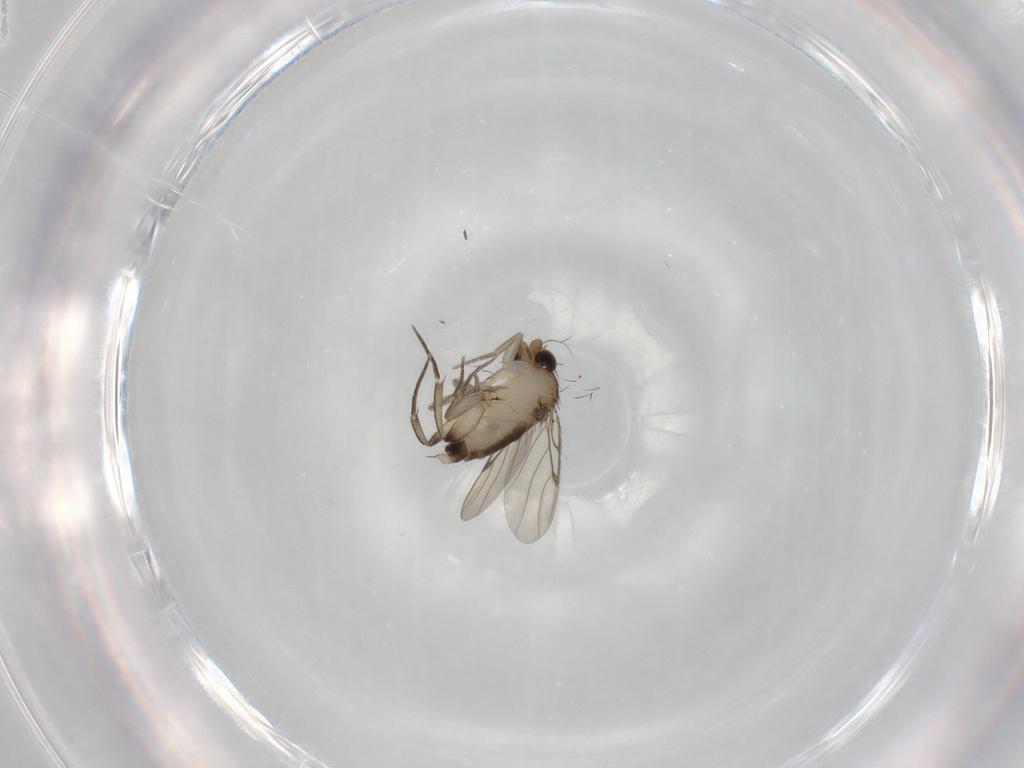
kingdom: Animalia
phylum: Arthropoda
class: Insecta
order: Diptera
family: Phoridae
